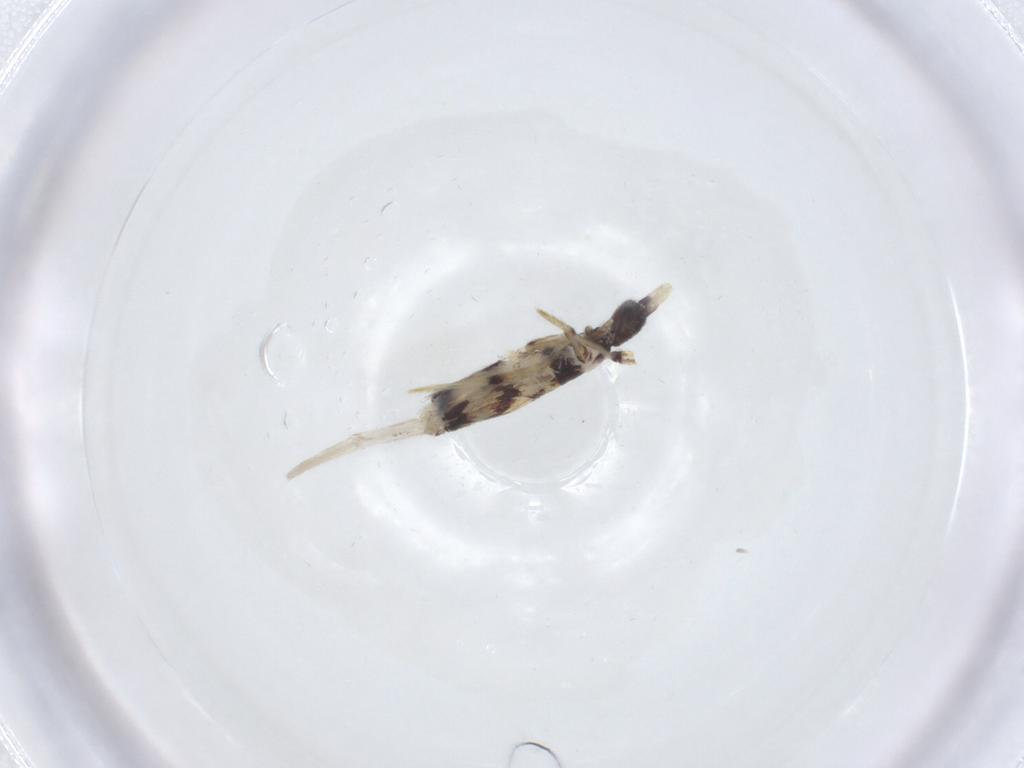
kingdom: Animalia
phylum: Arthropoda
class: Collembola
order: Entomobryomorpha
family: Entomobryidae
